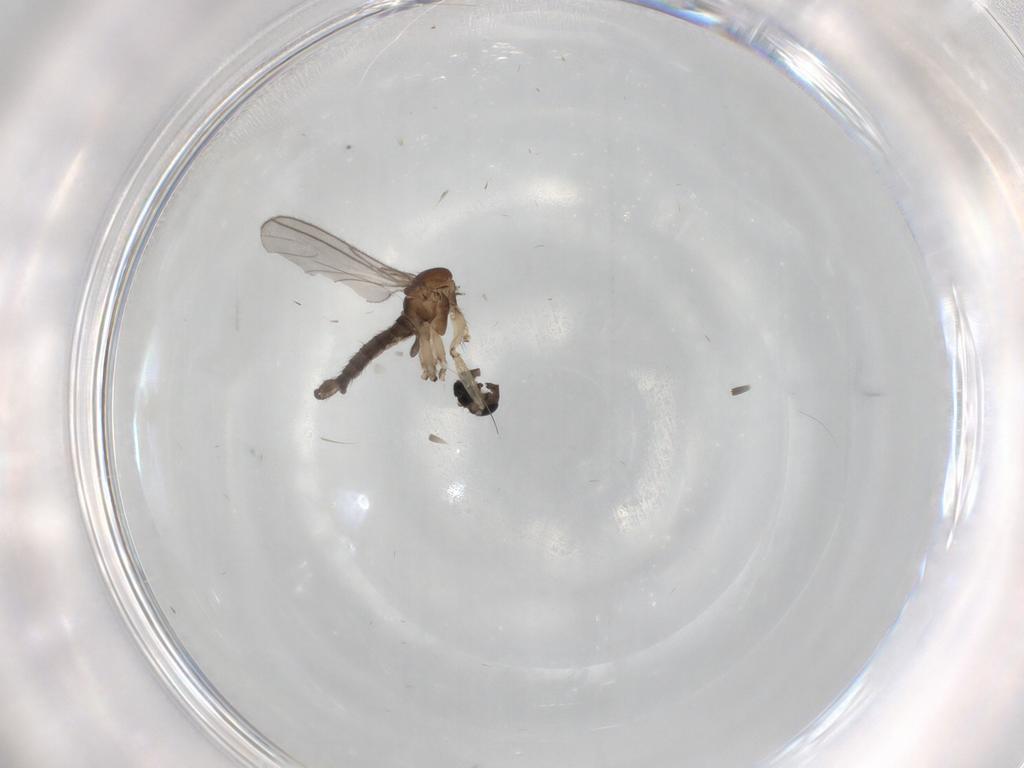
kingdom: Animalia
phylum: Arthropoda
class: Insecta
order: Diptera
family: Sciaridae
